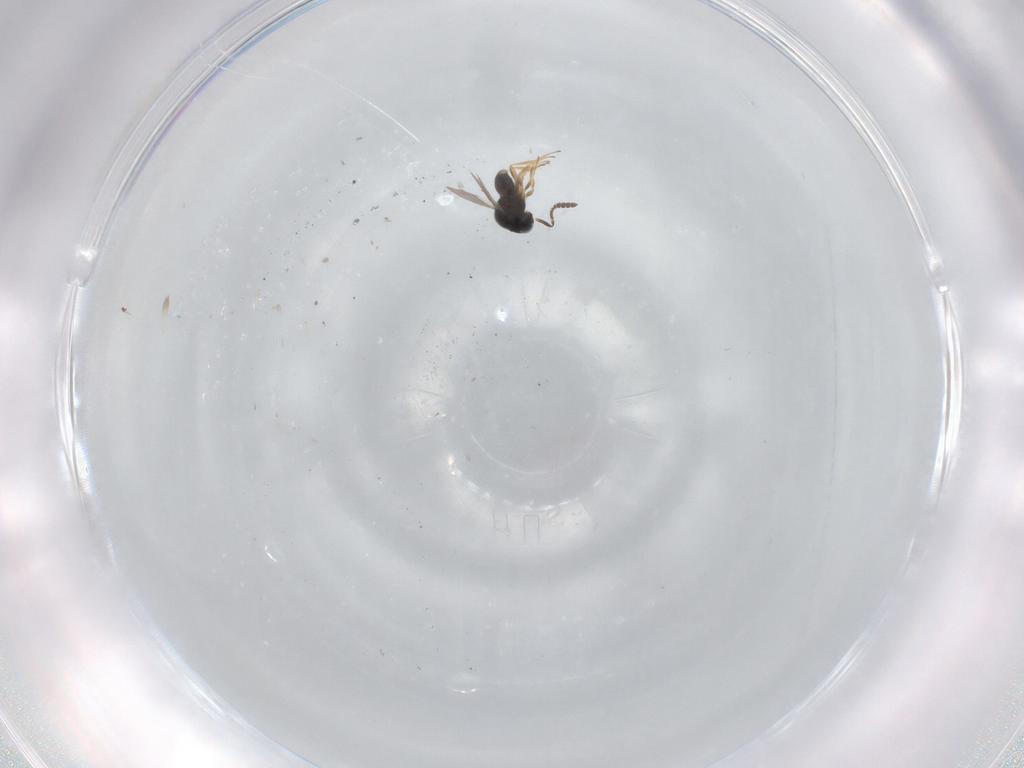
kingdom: Animalia
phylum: Arthropoda
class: Insecta
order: Hymenoptera
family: Scelionidae
